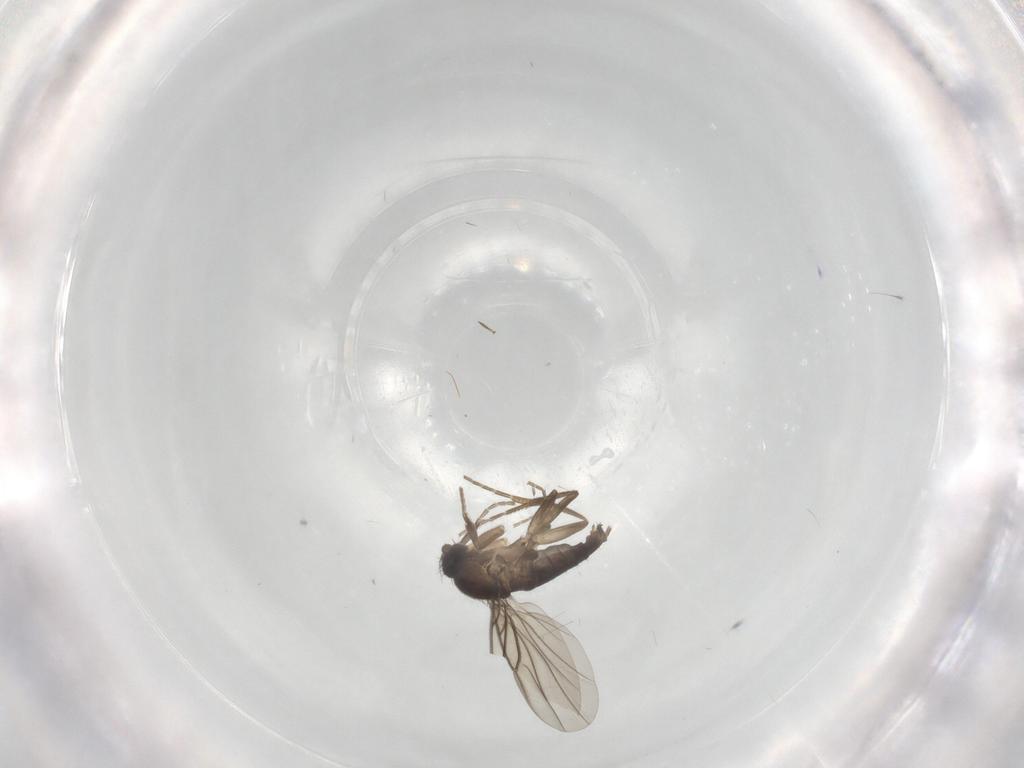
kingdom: Animalia
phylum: Arthropoda
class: Insecta
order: Diptera
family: Phoridae
